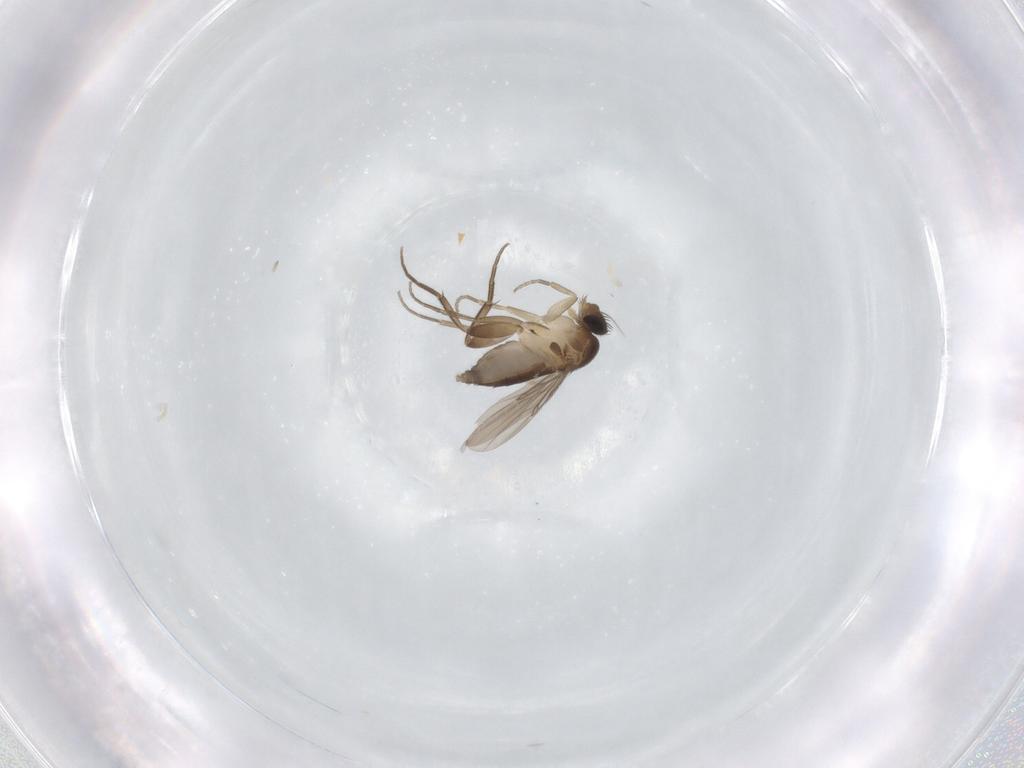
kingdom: Animalia
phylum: Arthropoda
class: Insecta
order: Diptera
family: Phoridae
